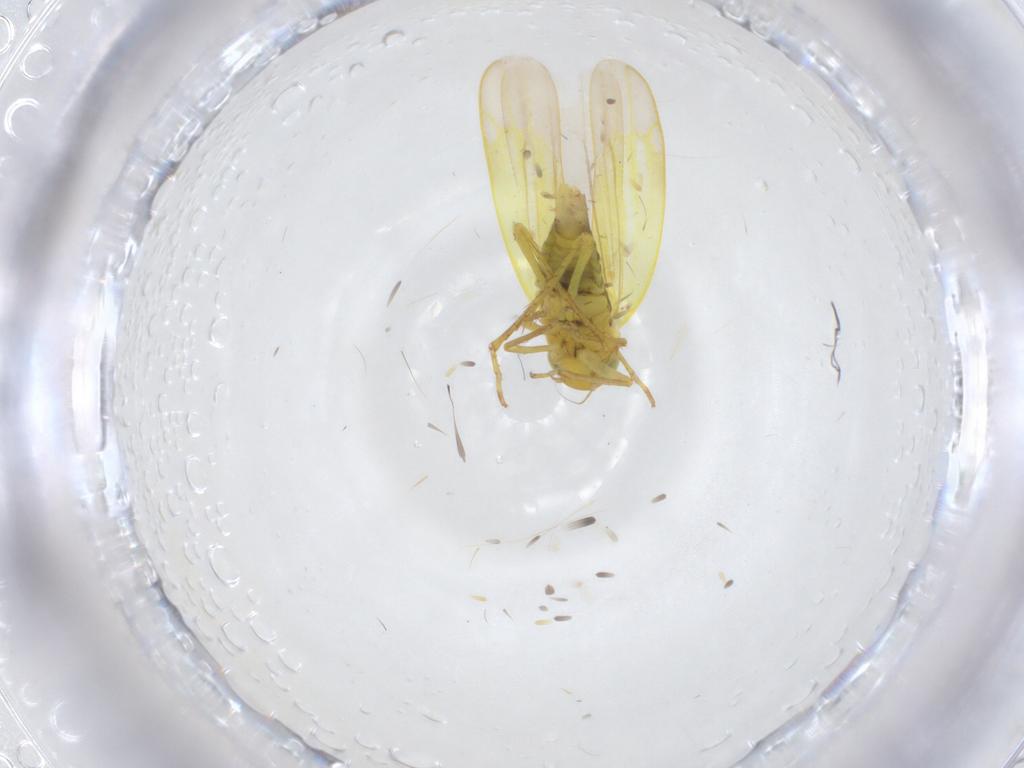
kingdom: Animalia
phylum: Arthropoda
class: Insecta
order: Hemiptera
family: Cicadellidae
